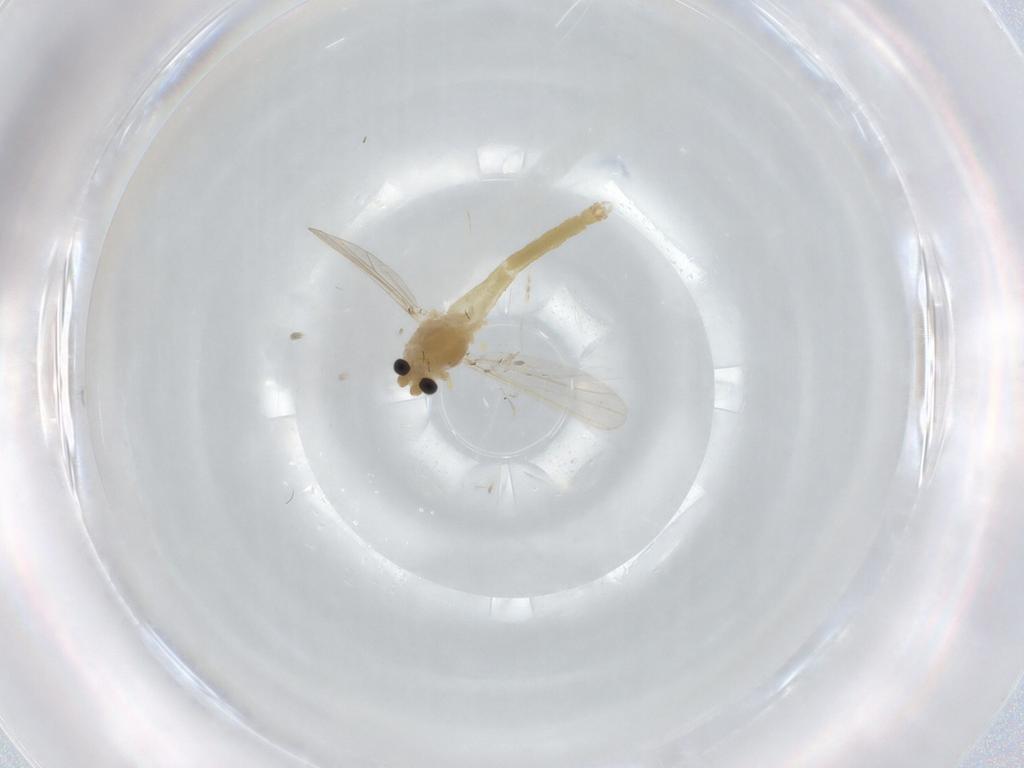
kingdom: Animalia
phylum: Arthropoda
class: Insecta
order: Diptera
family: Chironomidae
